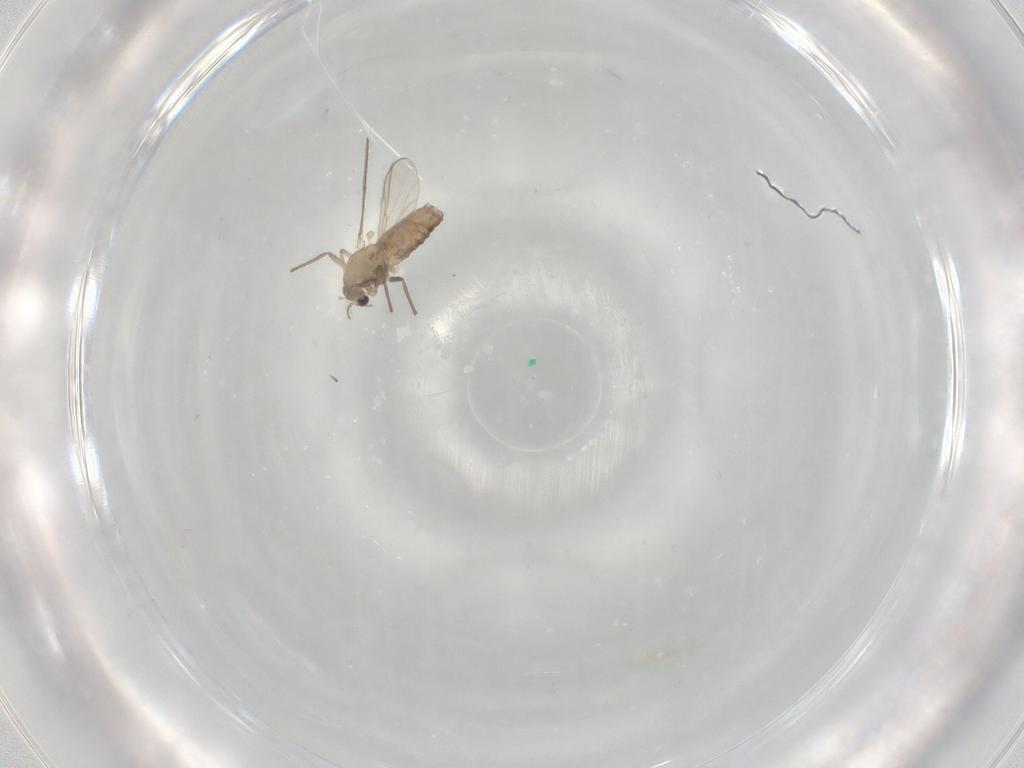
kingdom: Animalia
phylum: Arthropoda
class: Insecta
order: Diptera
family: Chironomidae
